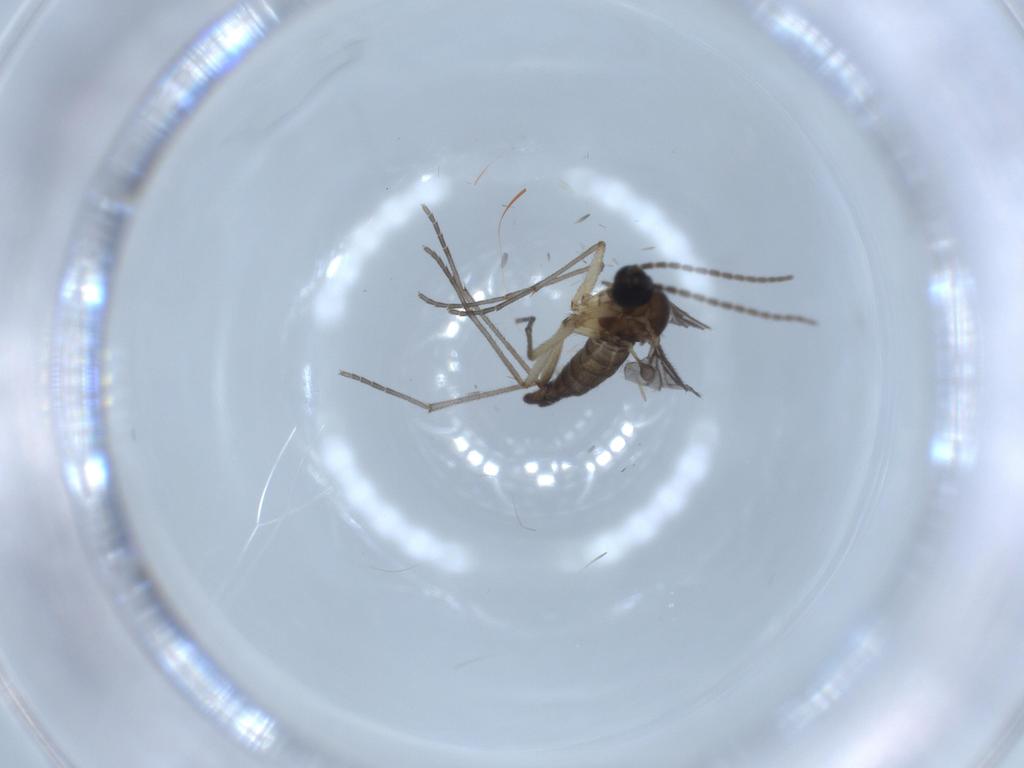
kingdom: Animalia
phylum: Arthropoda
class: Insecta
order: Diptera
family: Sciaridae
